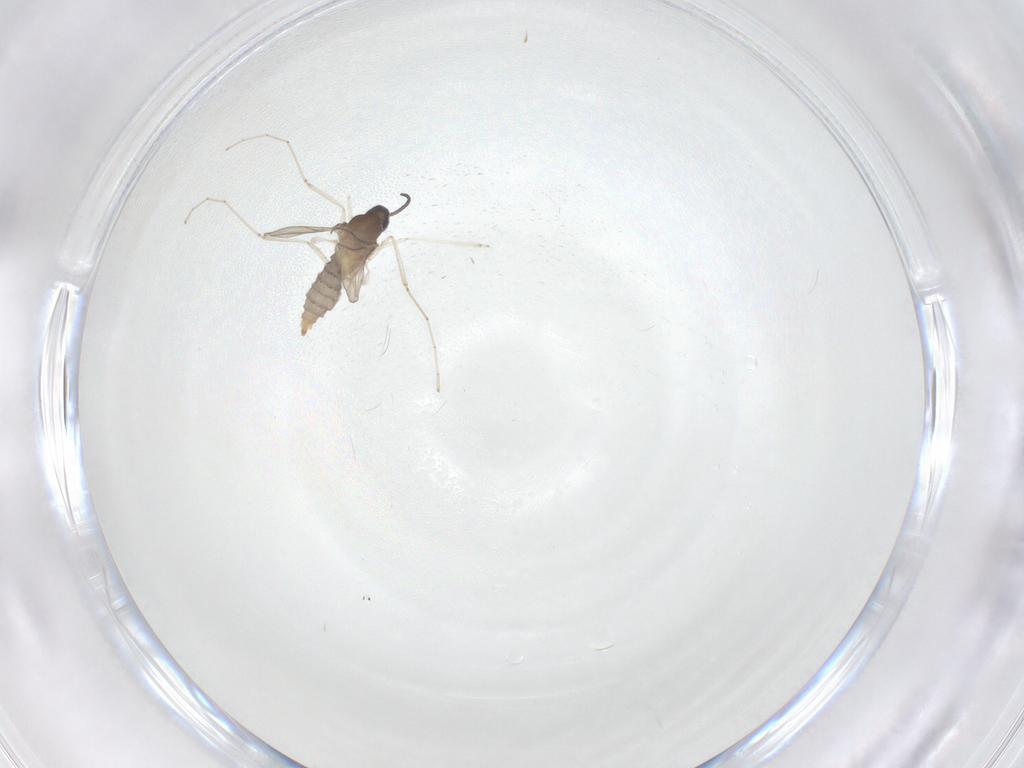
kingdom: Animalia
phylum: Arthropoda
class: Insecta
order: Diptera
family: Mycetophilidae
